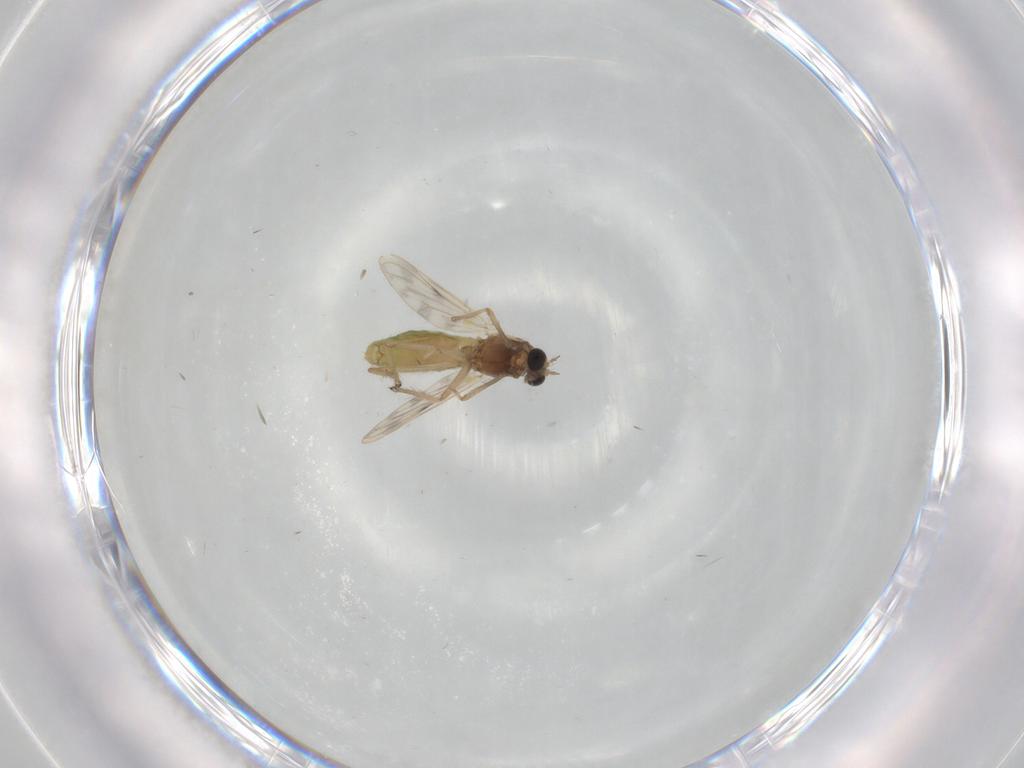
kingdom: Animalia
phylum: Arthropoda
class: Insecta
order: Diptera
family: Chironomidae
